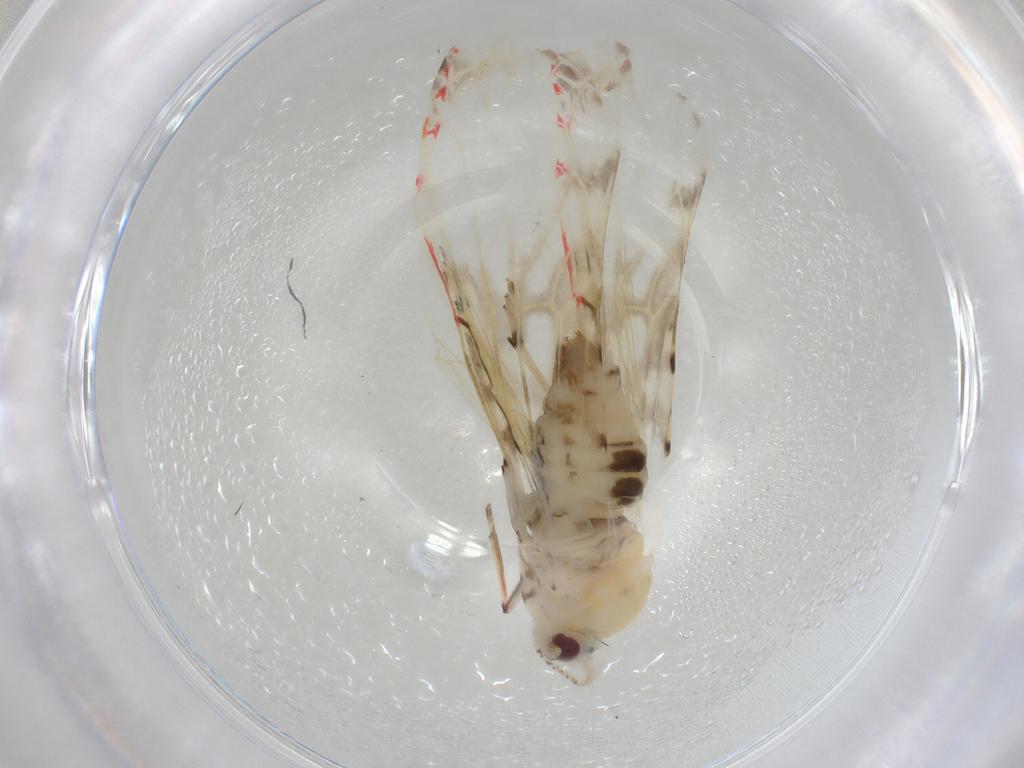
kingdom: Animalia
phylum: Arthropoda
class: Insecta
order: Hemiptera
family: Derbidae
